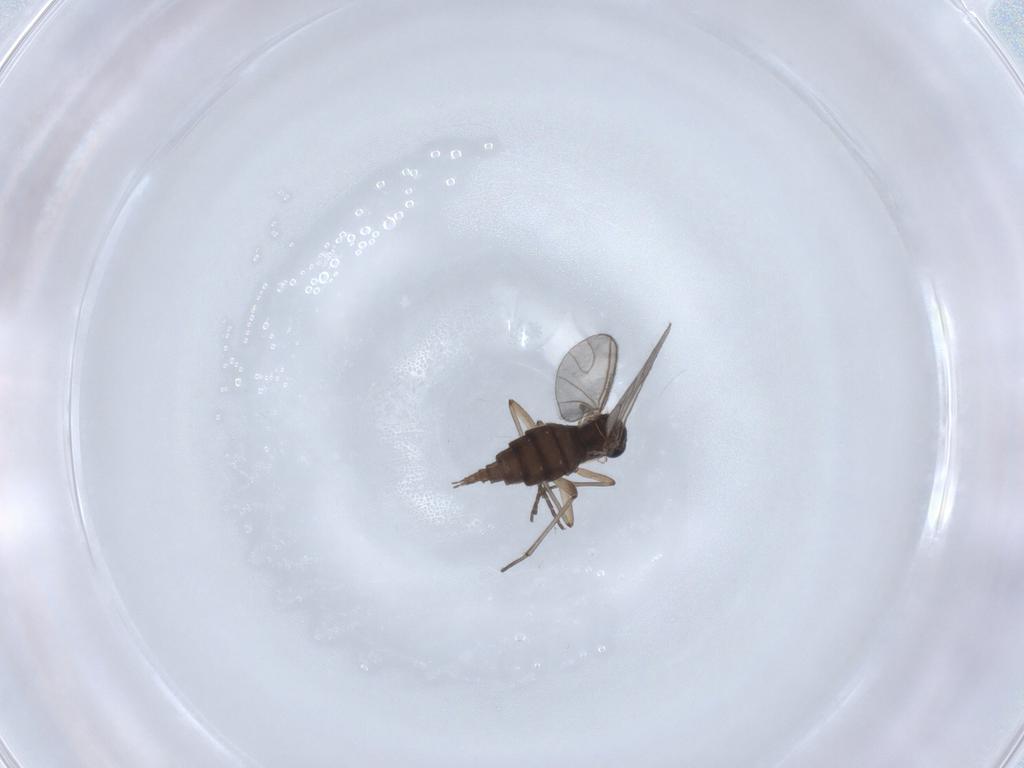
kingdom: Animalia
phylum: Arthropoda
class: Insecta
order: Diptera
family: Sciaridae
